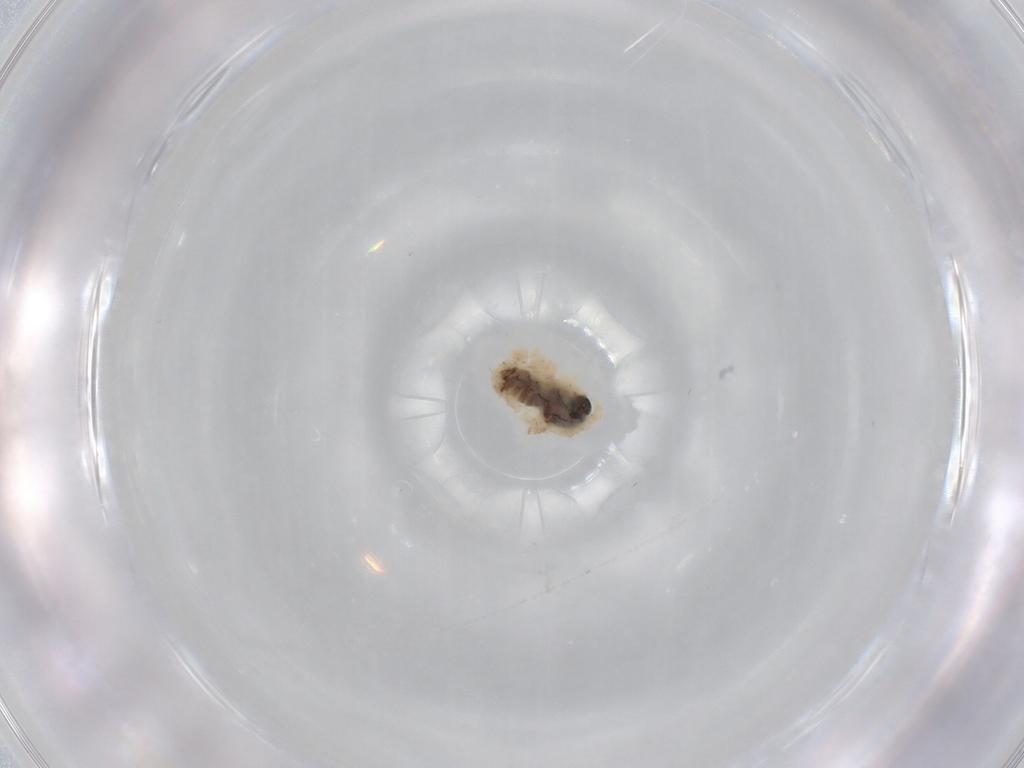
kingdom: Animalia
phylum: Arthropoda
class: Insecta
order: Diptera
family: Ceratopogonidae
